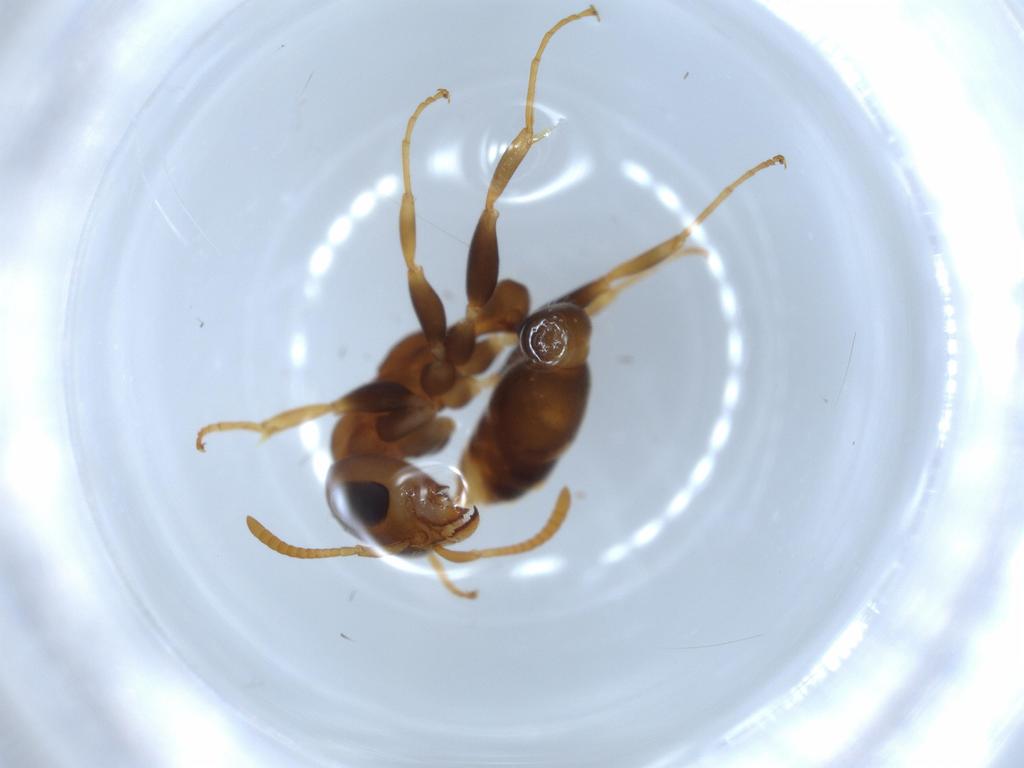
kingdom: Animalia
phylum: Arthropoda
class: Insecta
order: Hymenoptera
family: Formicidae
